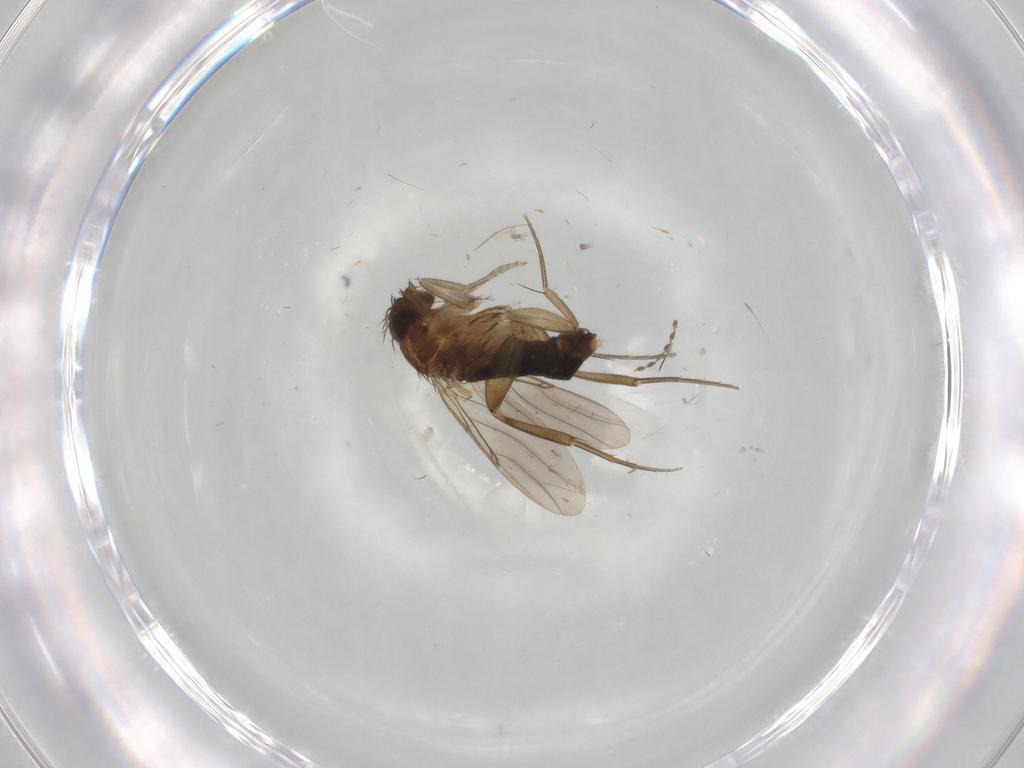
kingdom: Animalia
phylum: Arthropoda
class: Insecta
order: Diptera
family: Phoridae
